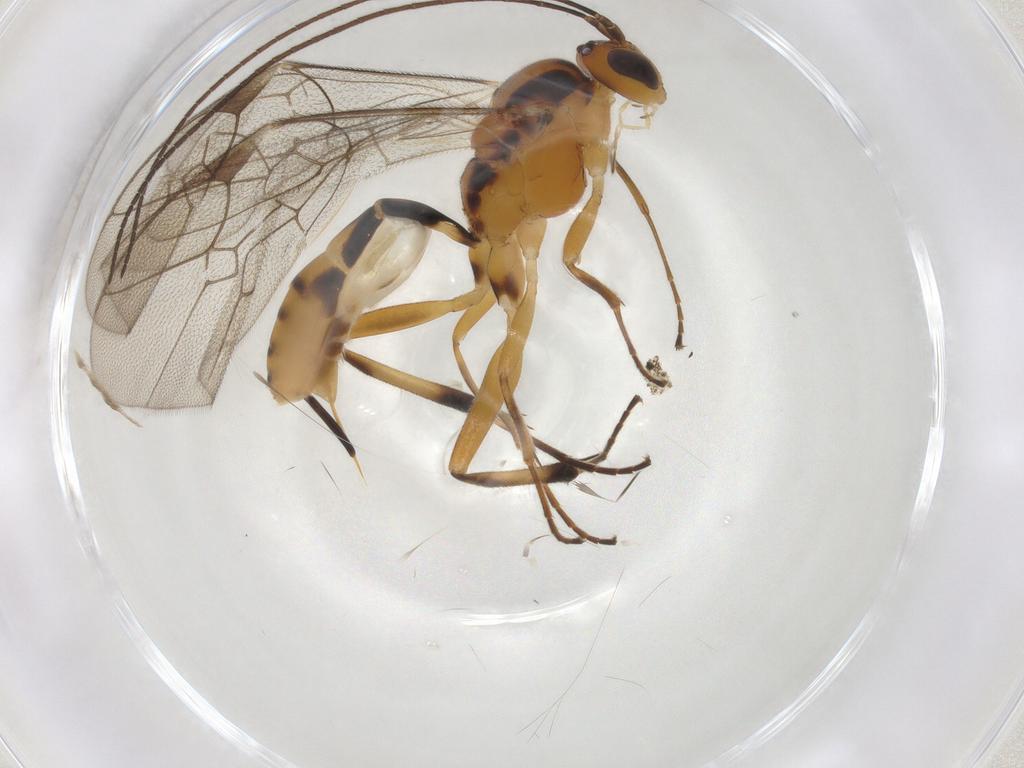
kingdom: Animalia
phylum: Arthropoda
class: Insecta
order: Hymenoptera
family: Ichneumonidae
